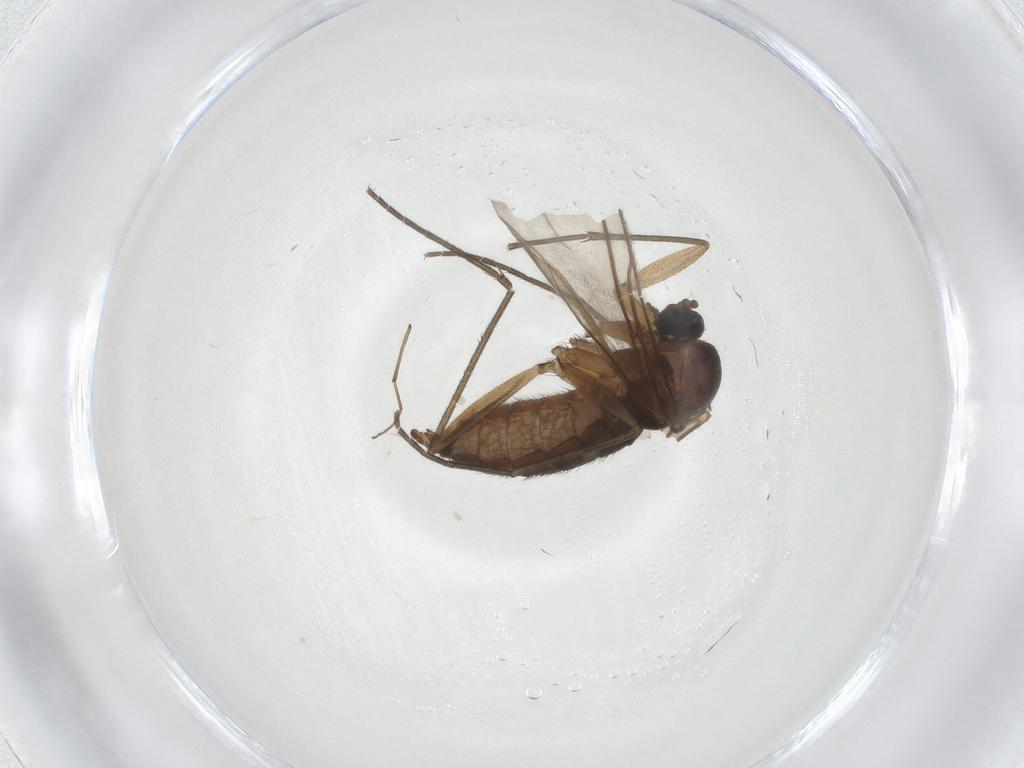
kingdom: Animalia
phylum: Arthropoda
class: Insecta
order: Diptera
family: Sciaridae
